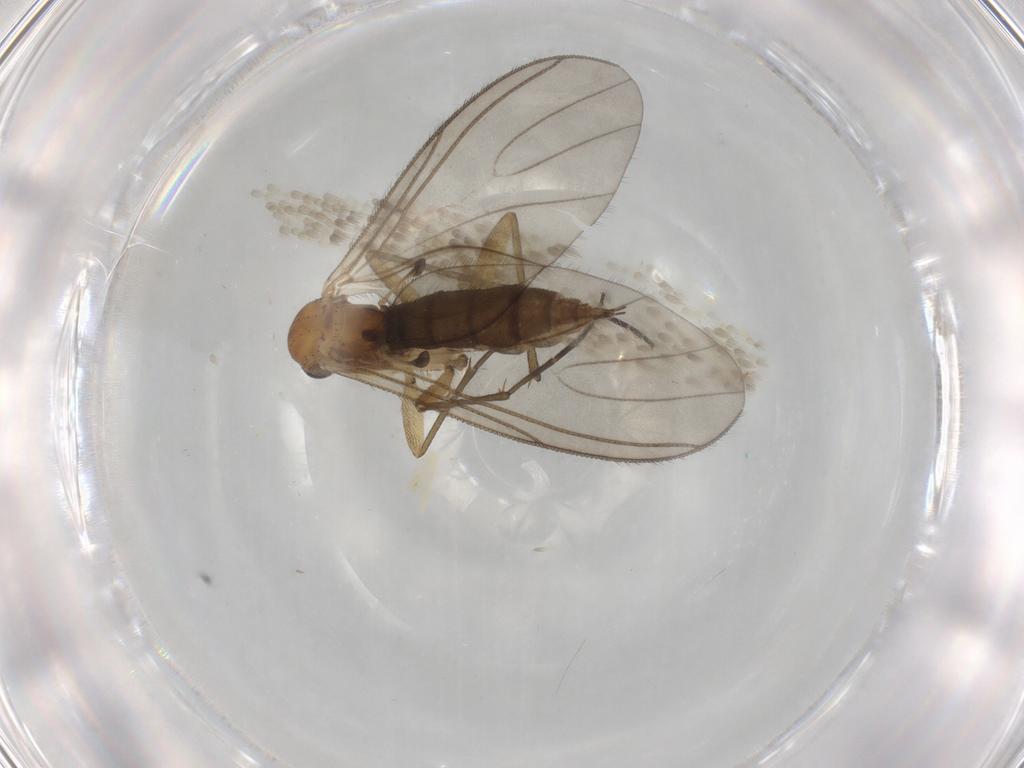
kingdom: Animalia
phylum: Arthropoda
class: Insecta
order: Diptera
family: Sciaridae
